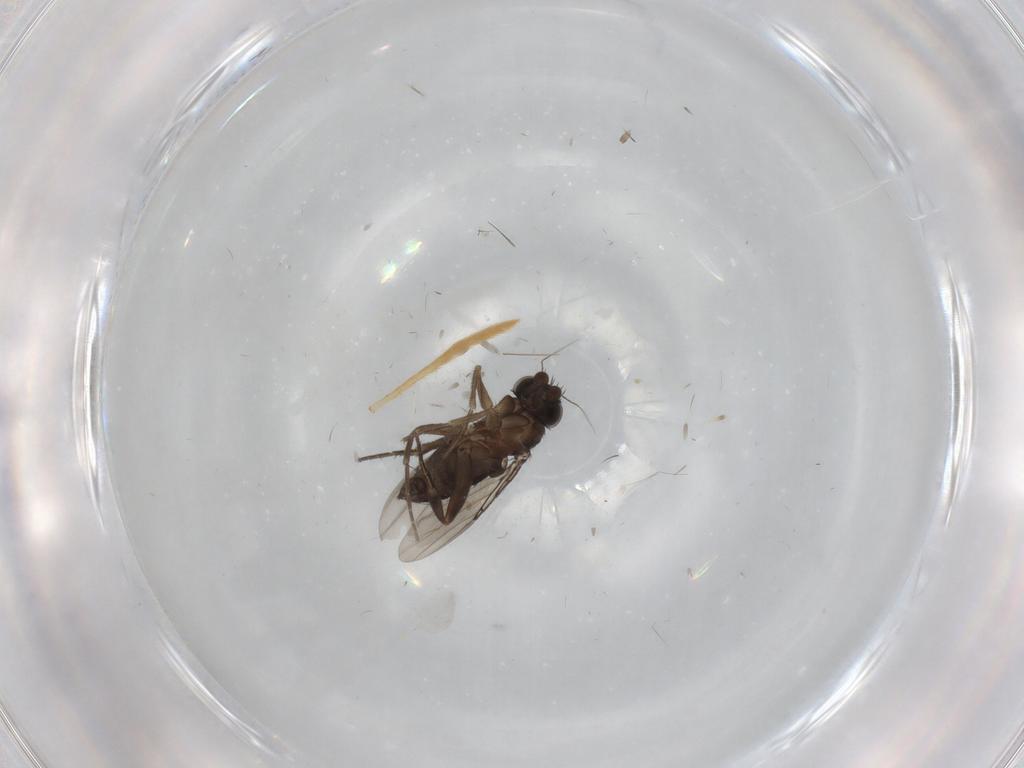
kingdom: Animalia
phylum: Arthropoda
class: Insecta
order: Diptera
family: Phoridae
